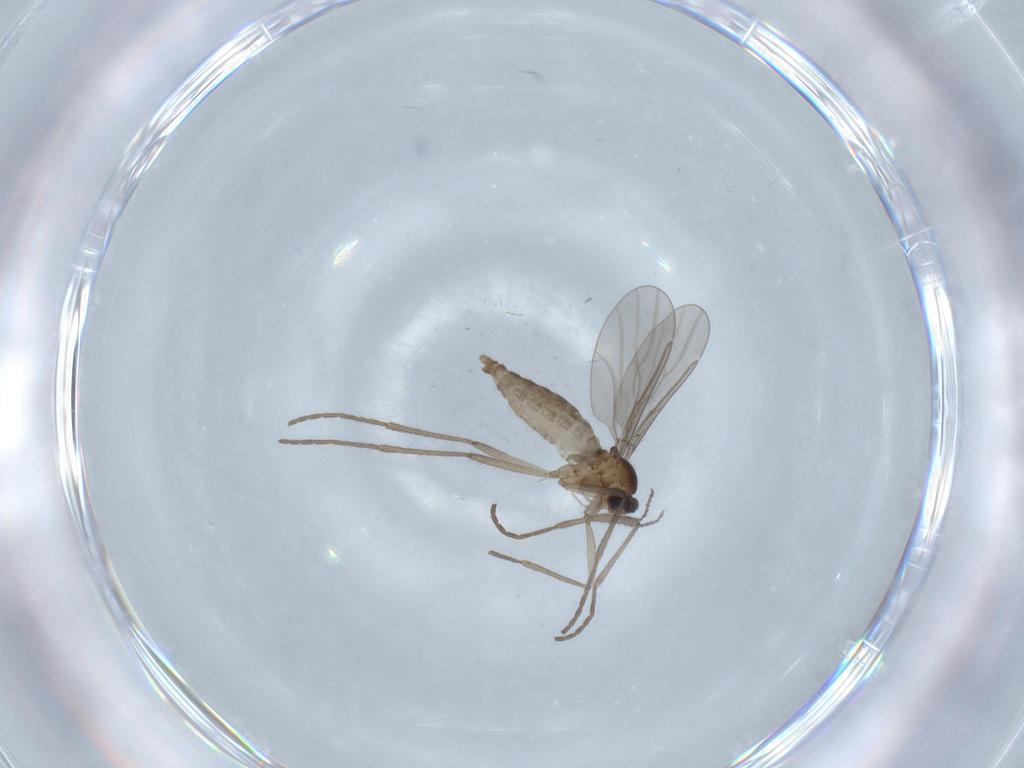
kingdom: Animalia
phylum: Arthropoda
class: Insecta
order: Diptera
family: Cecidomyiidae
